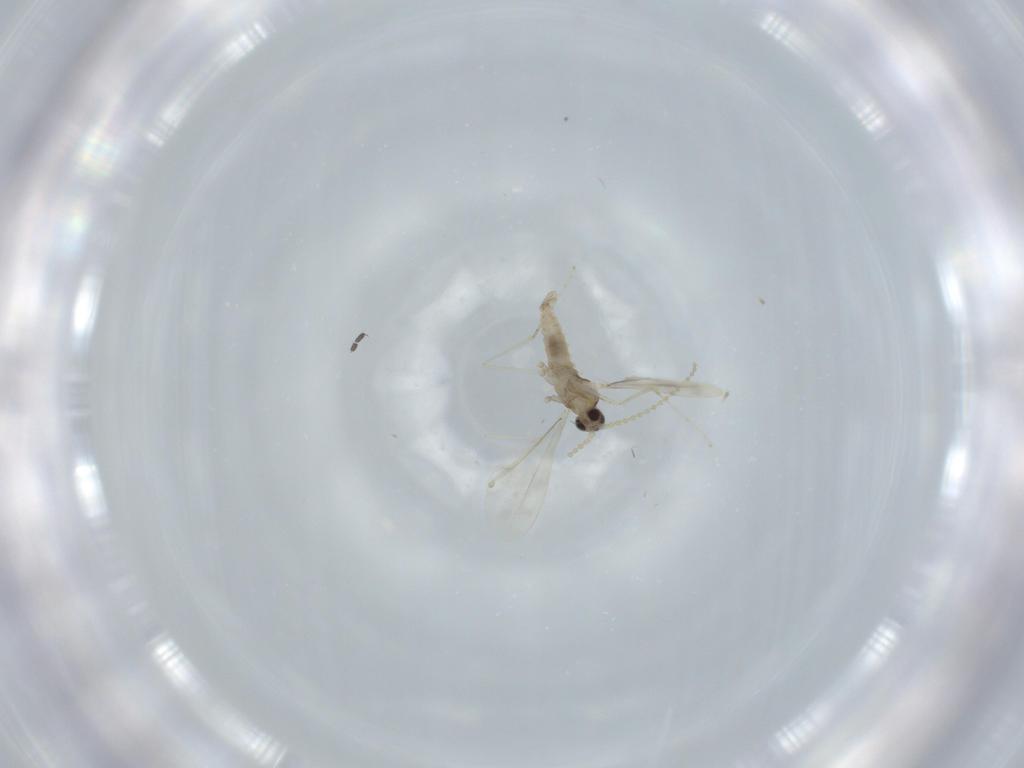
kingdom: Animalia
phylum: Arthropoda
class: Insecta
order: Diptera
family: Cecidomyiidae
